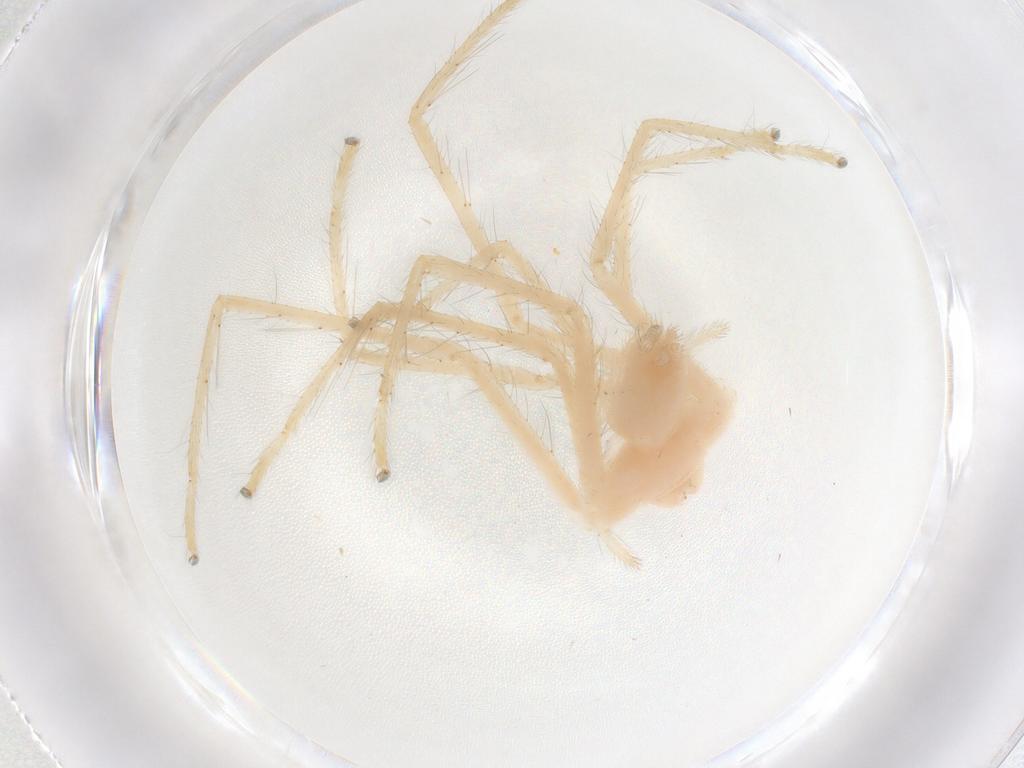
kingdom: Animalia
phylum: Arthropoda
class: Arachnida
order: Araneae
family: Sparassidae
